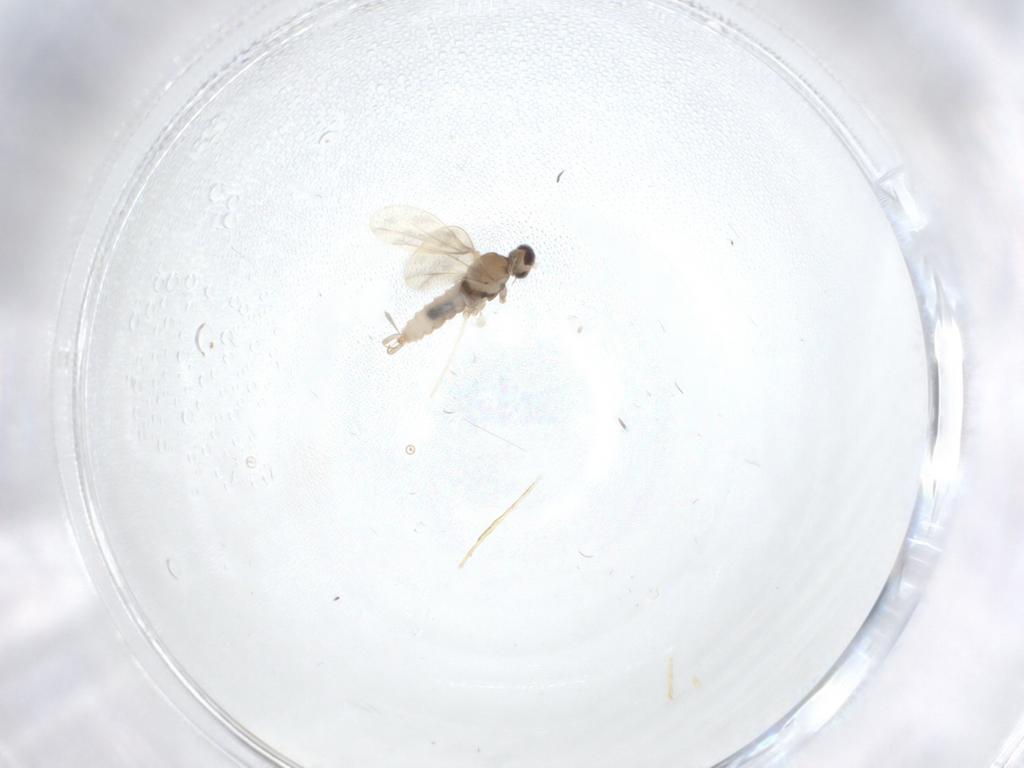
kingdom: Animalia
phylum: Arthropoda
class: Insecta
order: Diptera
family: Cecidomyiidae
